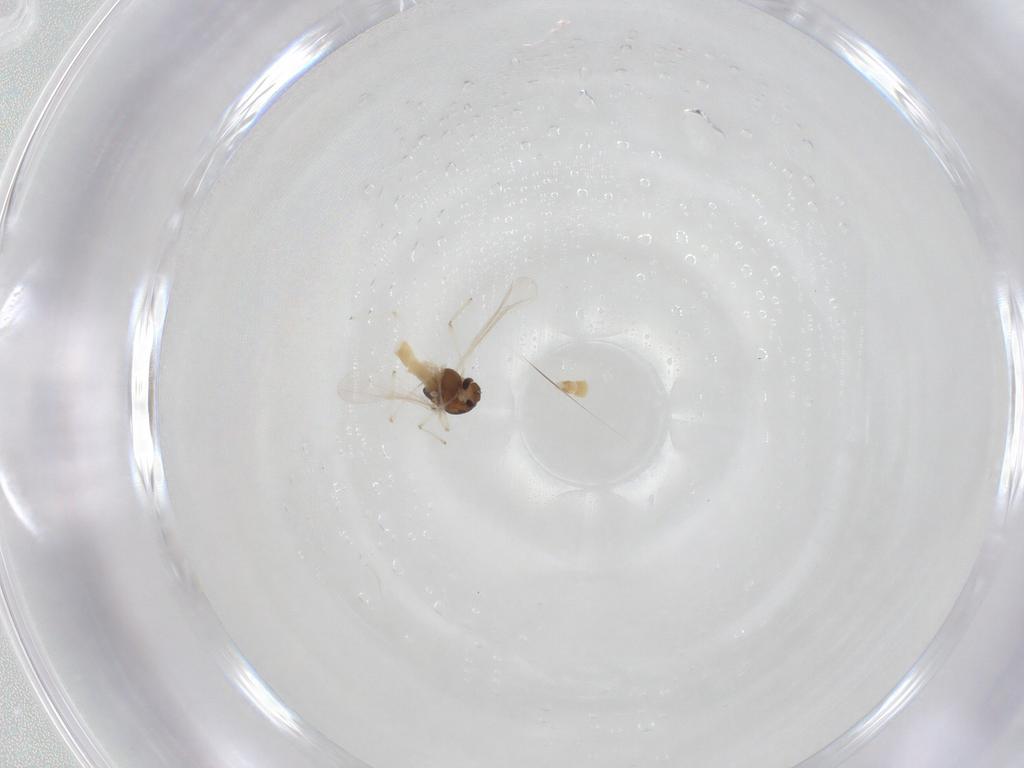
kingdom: Animalia
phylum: Arthropoda
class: Insecta
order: Diptera
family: Chironomidae
